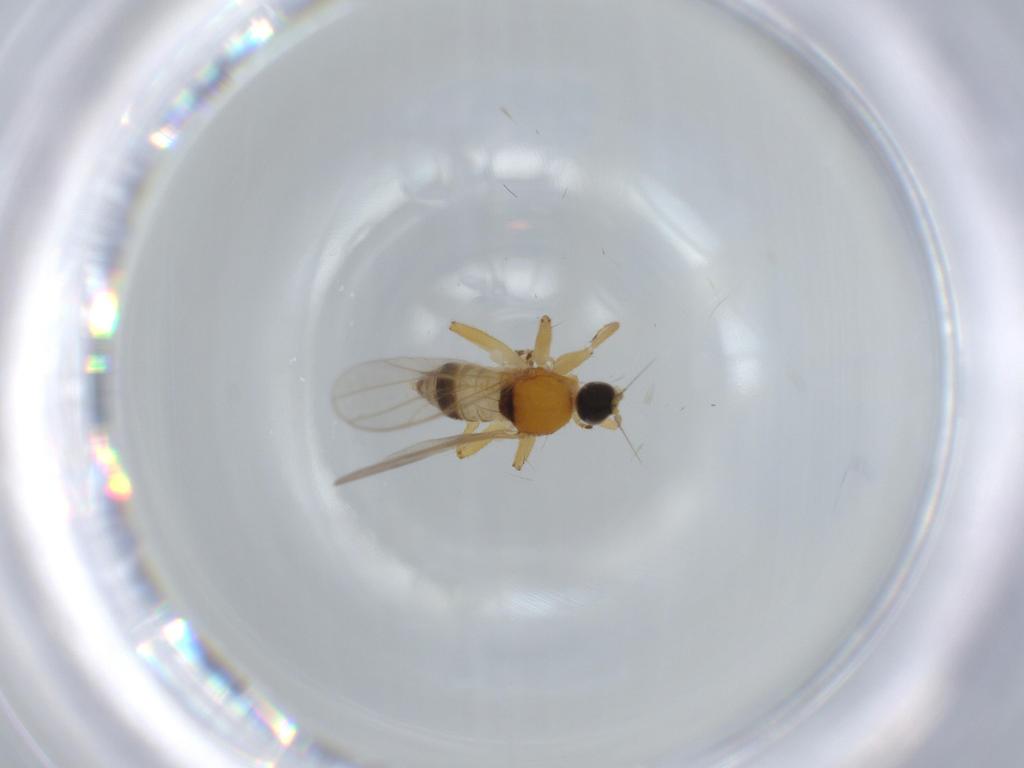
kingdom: Animalia
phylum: Arthropoda
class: Insecta
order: Diptera
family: Hybotidae
